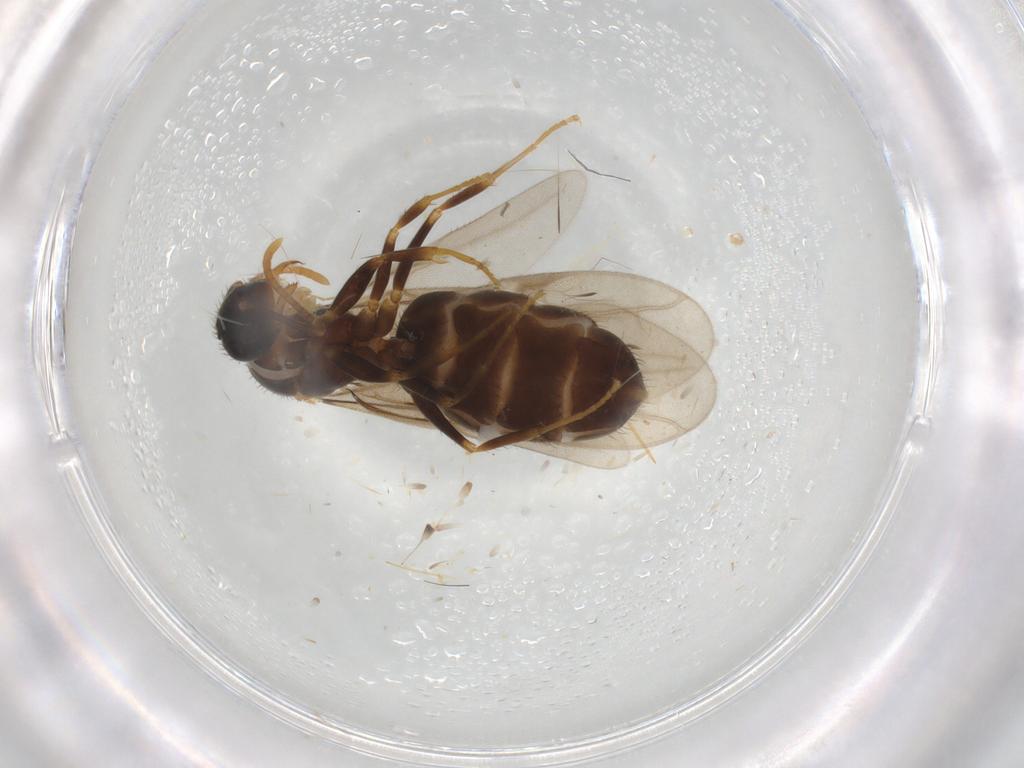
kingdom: Animalia
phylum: Arthropoda
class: Insecta
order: Hymenoptera
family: Formicidae
